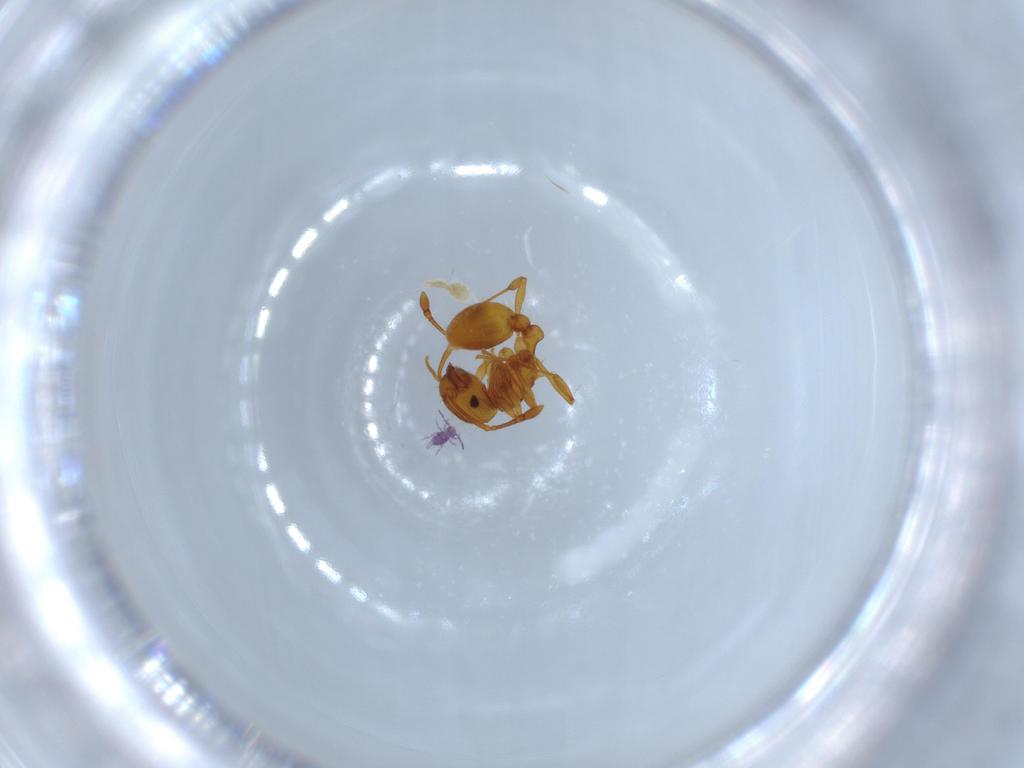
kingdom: Animalia
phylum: Arthropoda
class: Insecta
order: Hymenoptera
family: Formicidae
